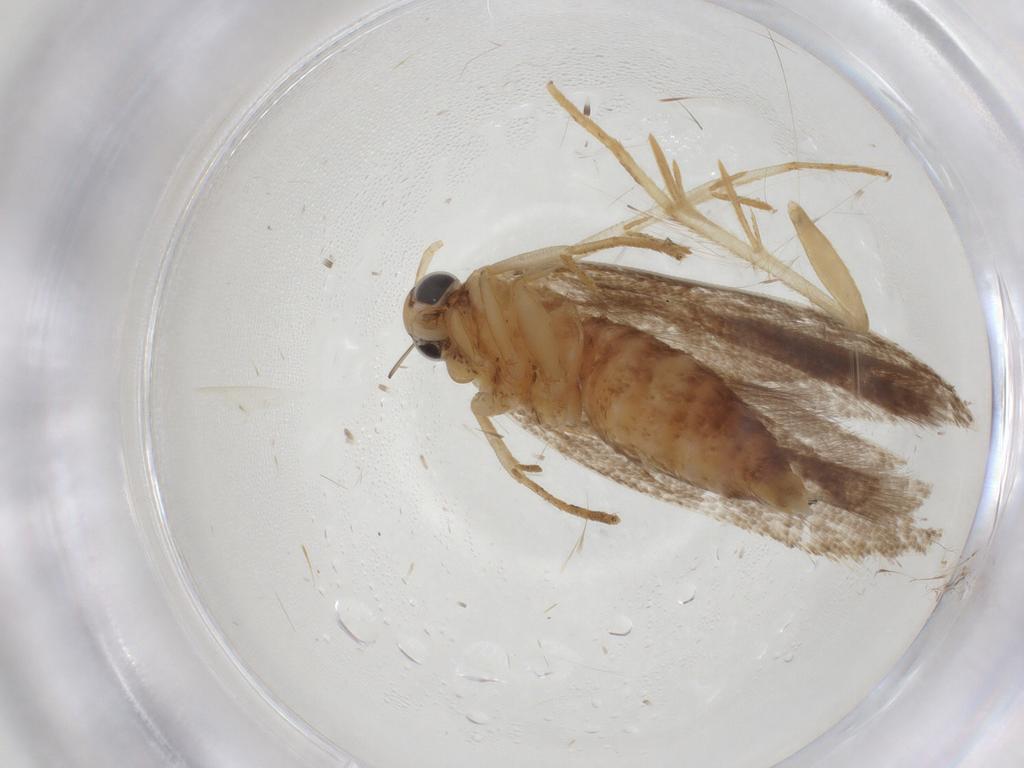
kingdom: Animalia
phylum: Arthropoda
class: Insecta
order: Lepidoptera
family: Gelechiidae
